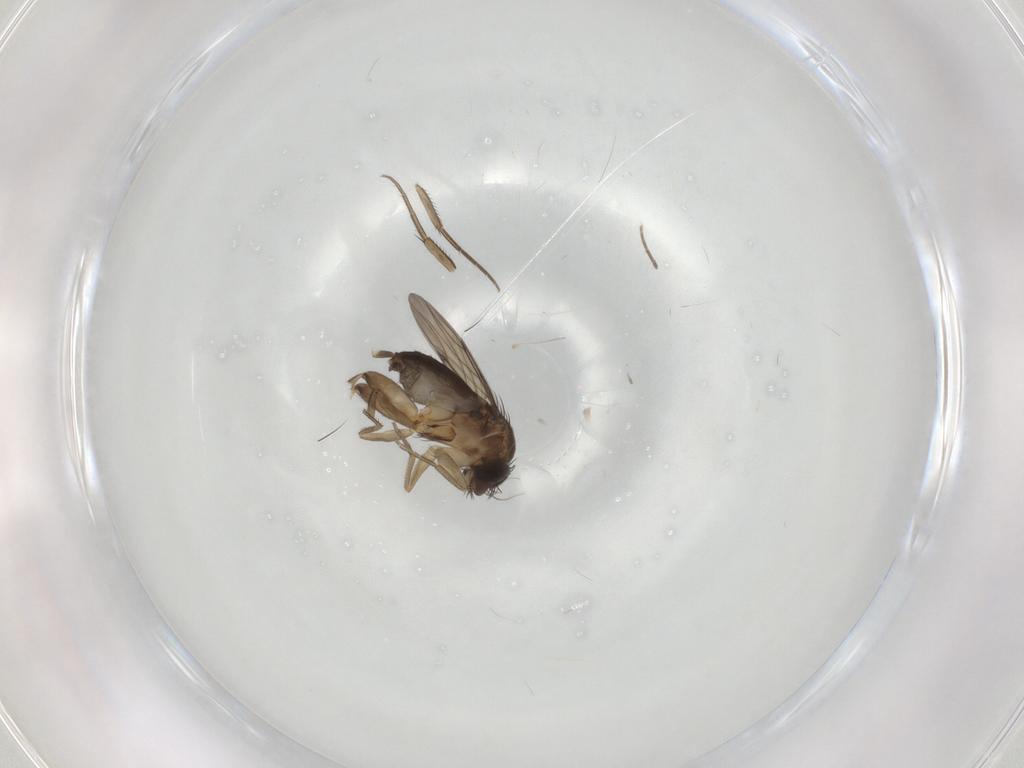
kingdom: Animalia
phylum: Arthropoda
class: Insecta
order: Diptera
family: Phoridae
